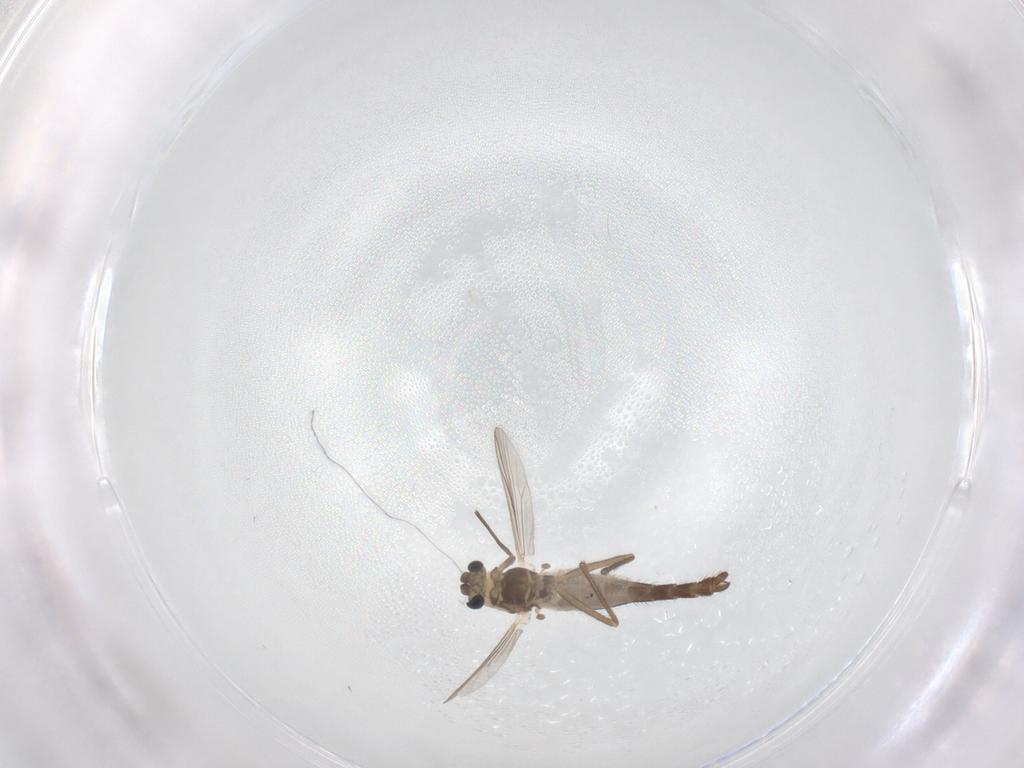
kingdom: Animalia
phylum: Arthropoda
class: Insecta
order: Diptera
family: Chironomidae
